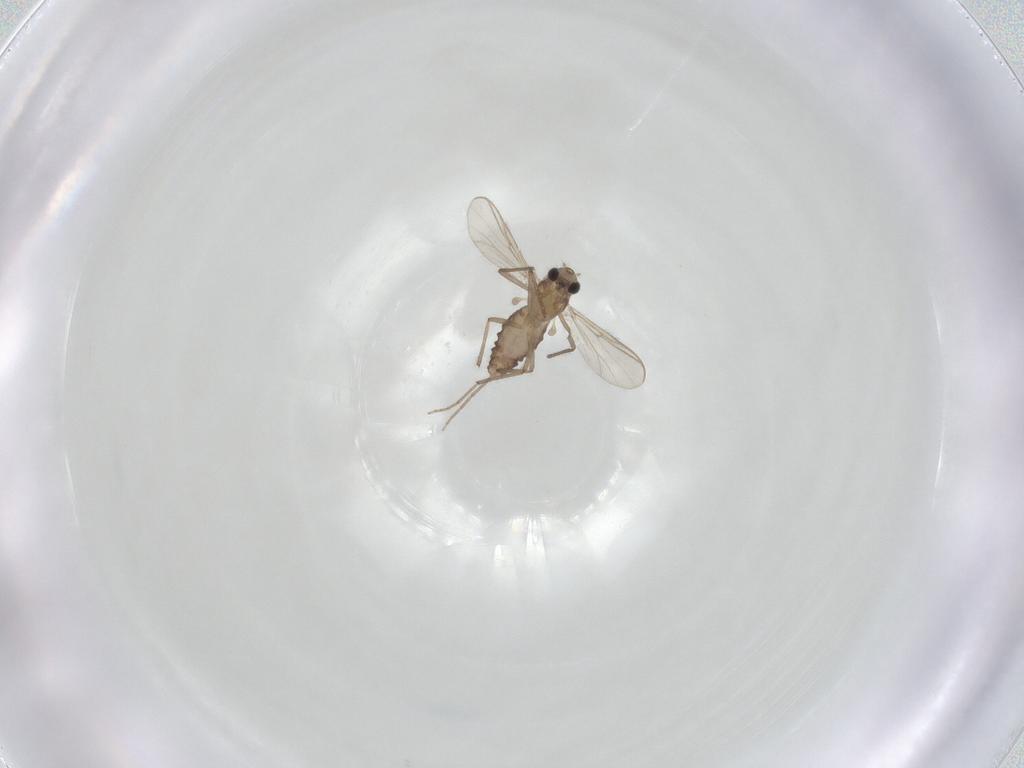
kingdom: Animalia
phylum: Arthropoda
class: Insecta
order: Diptera
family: Chironomidae
